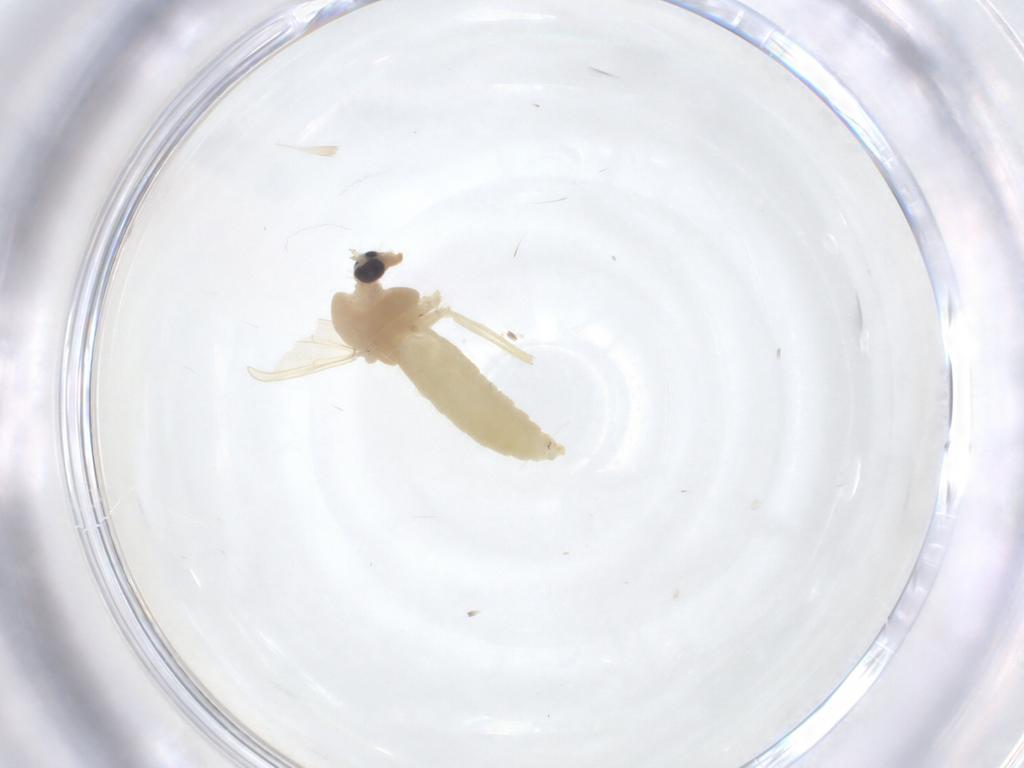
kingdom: Animalia
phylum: Arthropoda
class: Insecta
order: Diptera
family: Chironomidae
